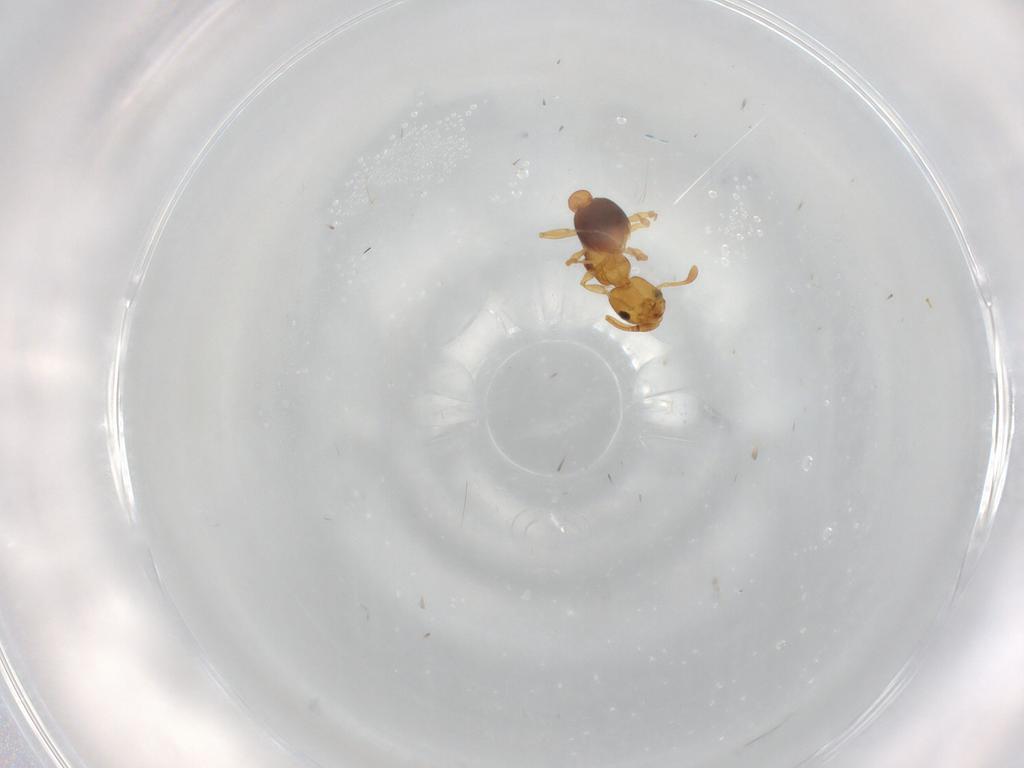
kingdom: Animalia
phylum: Arthropoda
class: Insecta
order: Hymenoptera
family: Formicidae
